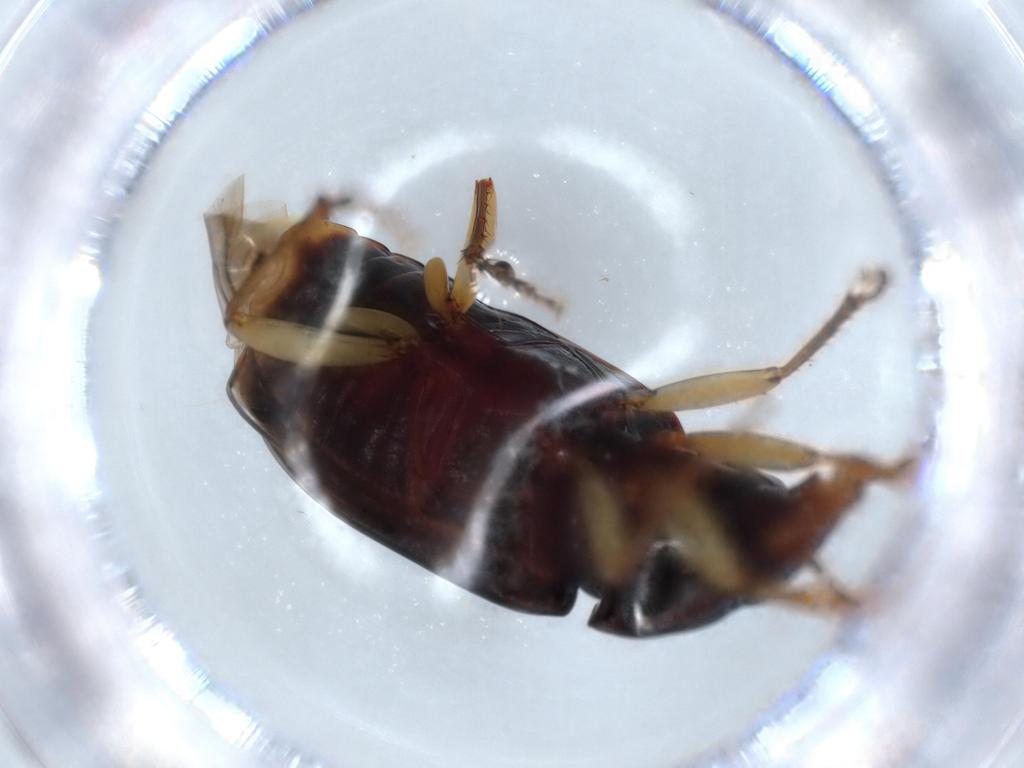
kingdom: Animalia
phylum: Arthropoda
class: Insecta
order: Coleoptera
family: Carabidae
